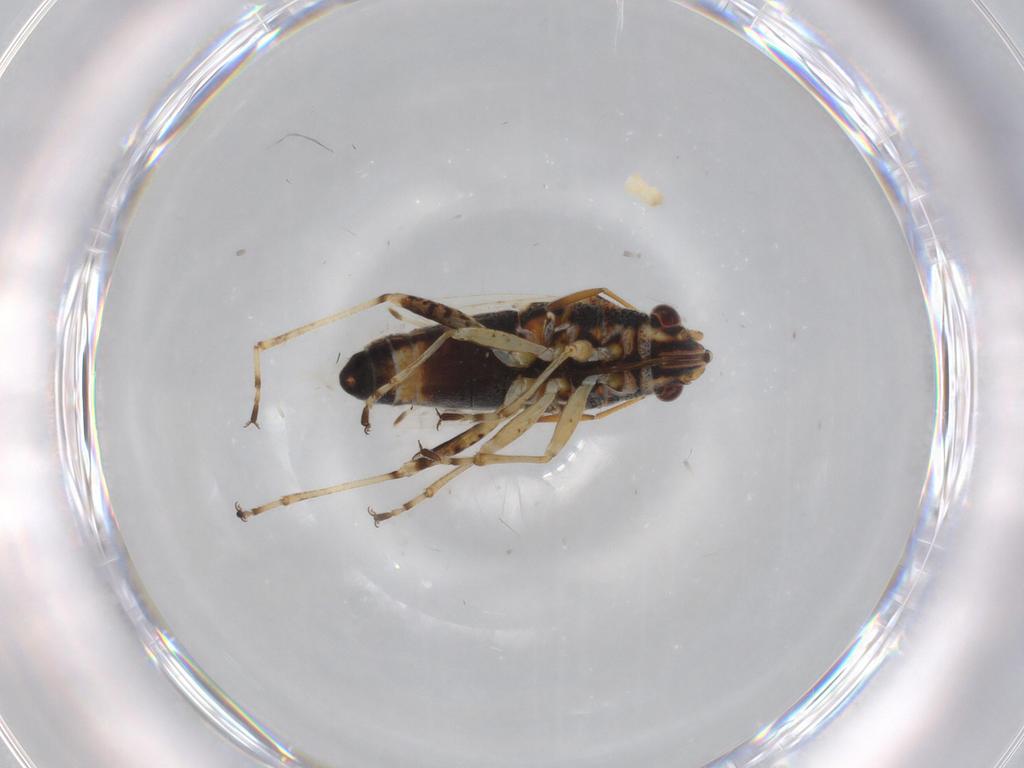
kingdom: Animalia
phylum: Arthropoda
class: Insecta
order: Hemiptera
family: Lygaeidae
